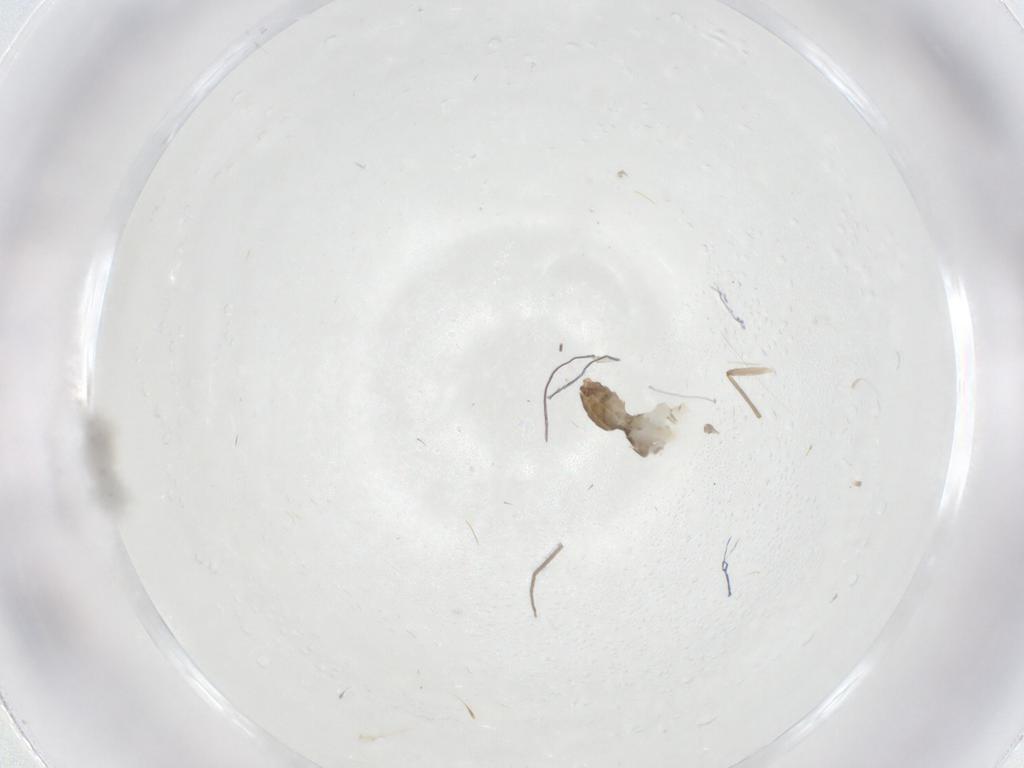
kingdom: Animalia
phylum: Arthropoda
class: Insecta
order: Diptera
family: Chironomidae
